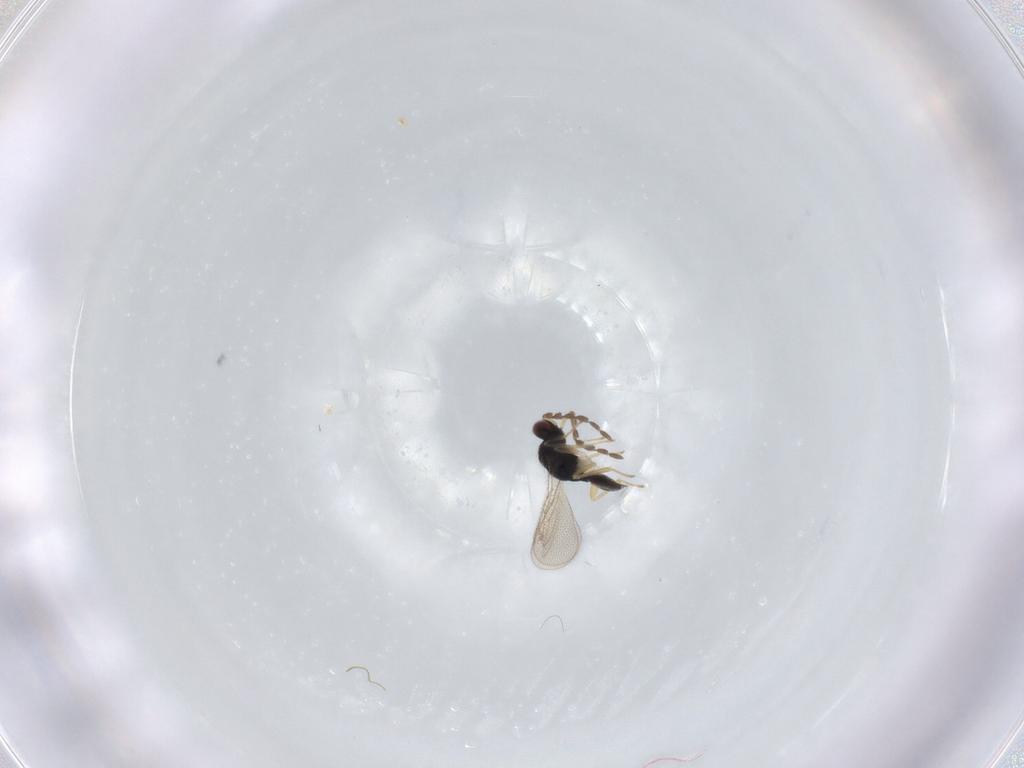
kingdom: Animalia
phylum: Arthropoda
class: Insecta
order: Hymenoptera
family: Eulophidae
